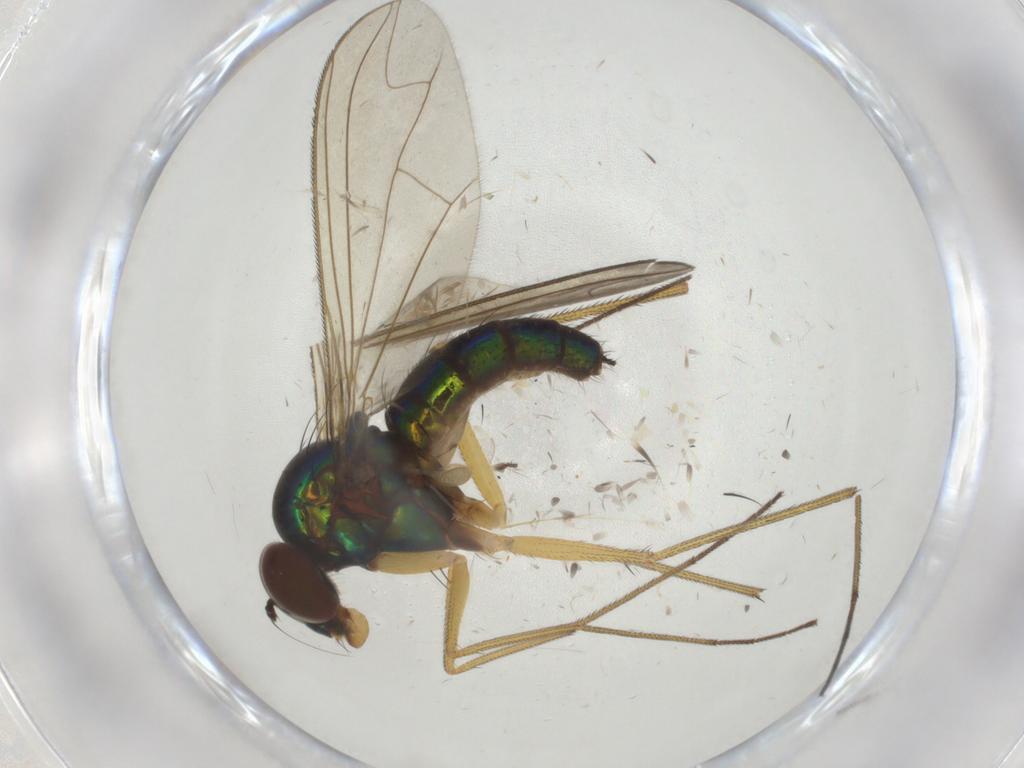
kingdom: Animalia
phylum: Arthropoda
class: Insecta
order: Diptera
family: Dolichopodidae
